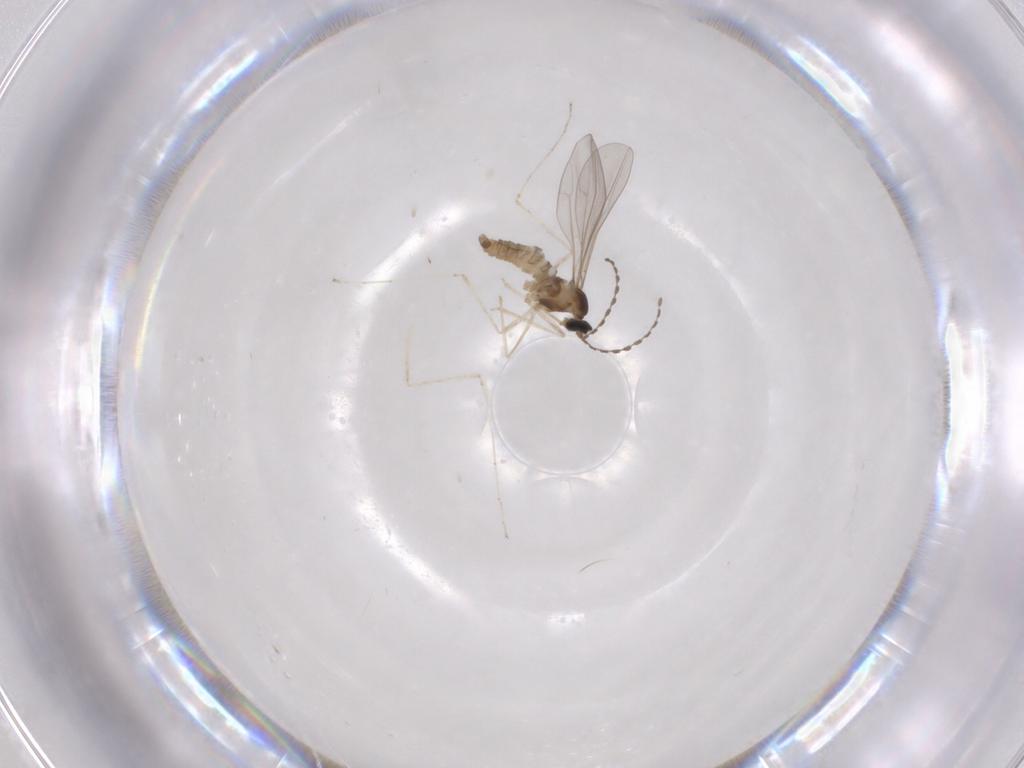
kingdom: Animalia
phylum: Arthropoda
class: Insecta
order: Diptera
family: Cecidomyiidae
